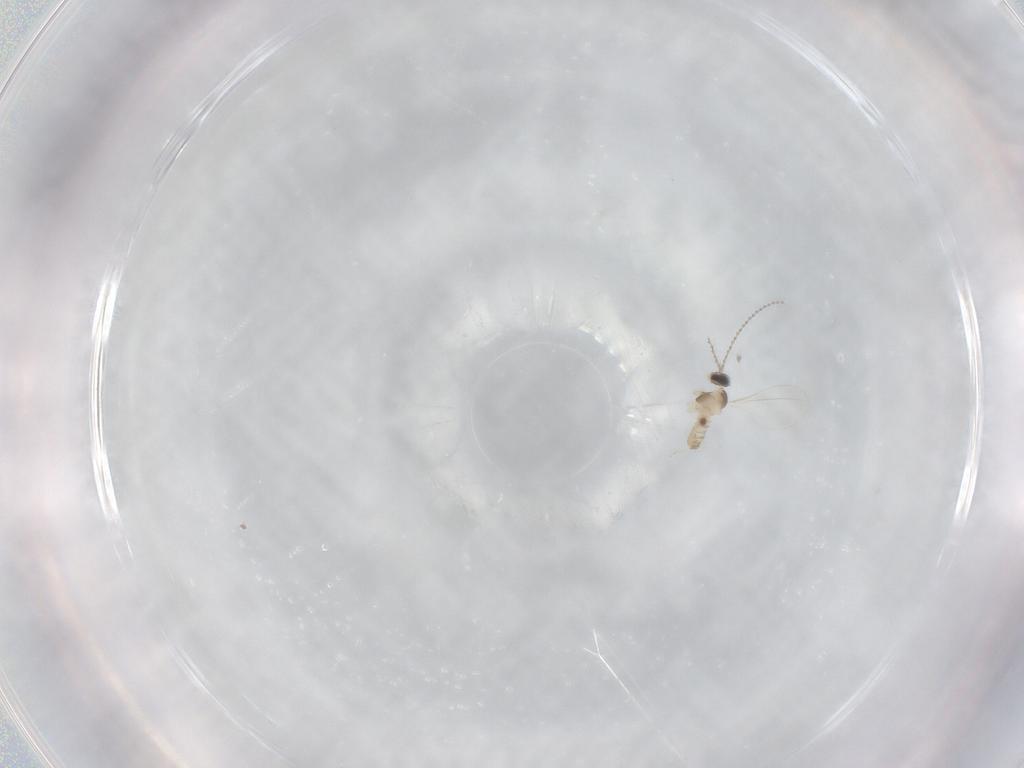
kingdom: Animalia
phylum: Arthropoda
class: Insecta
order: Diptera
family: Cecidomyiidae
